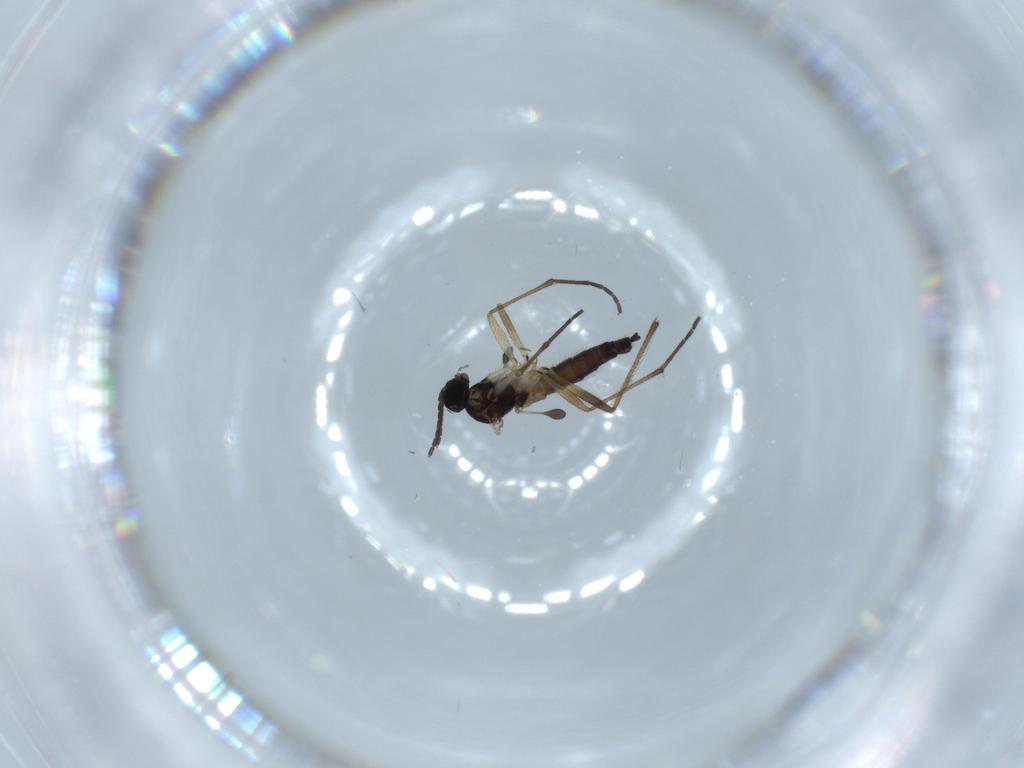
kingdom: Animalia
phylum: Arthropoda
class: Insecta
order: Diptera
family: Sciaridae
